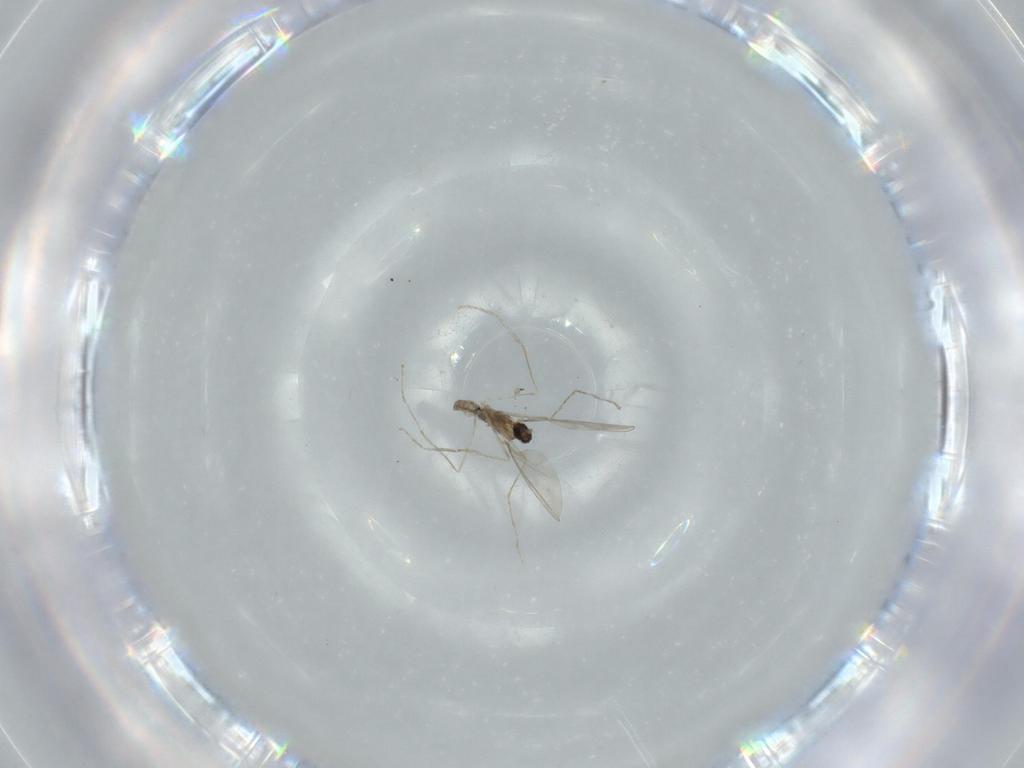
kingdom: Animalia
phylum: Arthropoda
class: Insecta
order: Diptera
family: Cecidomyiidae
